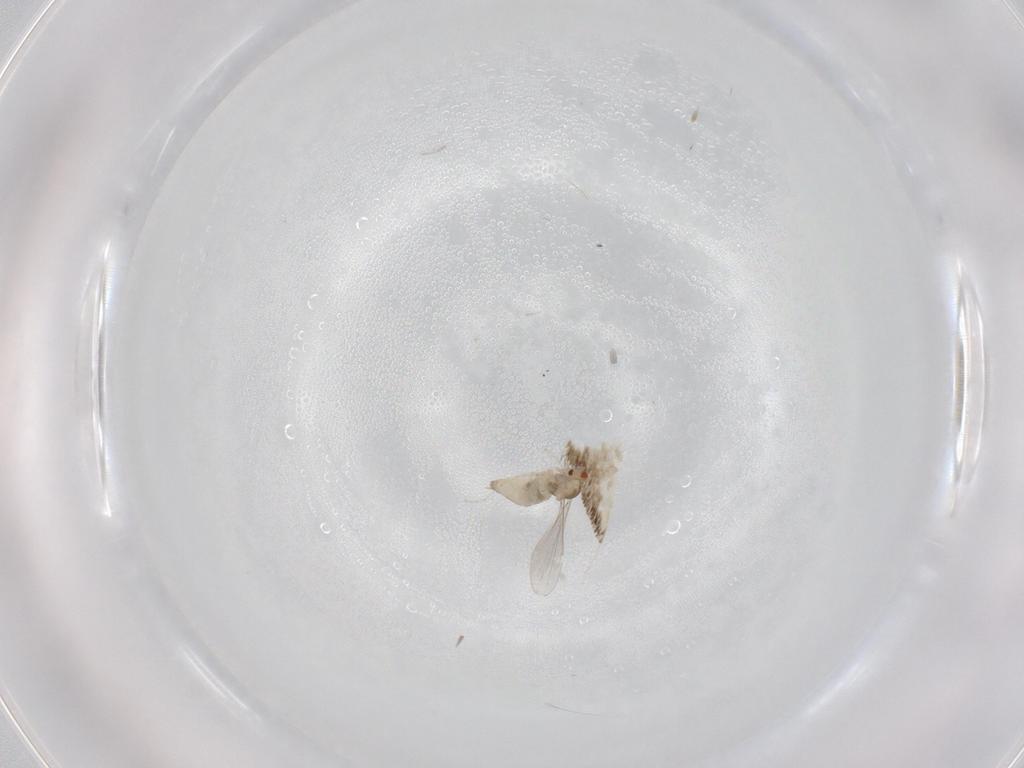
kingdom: Animalia
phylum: Arthropoda
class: Insecta
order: Diptera
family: Cecidomyiidae
